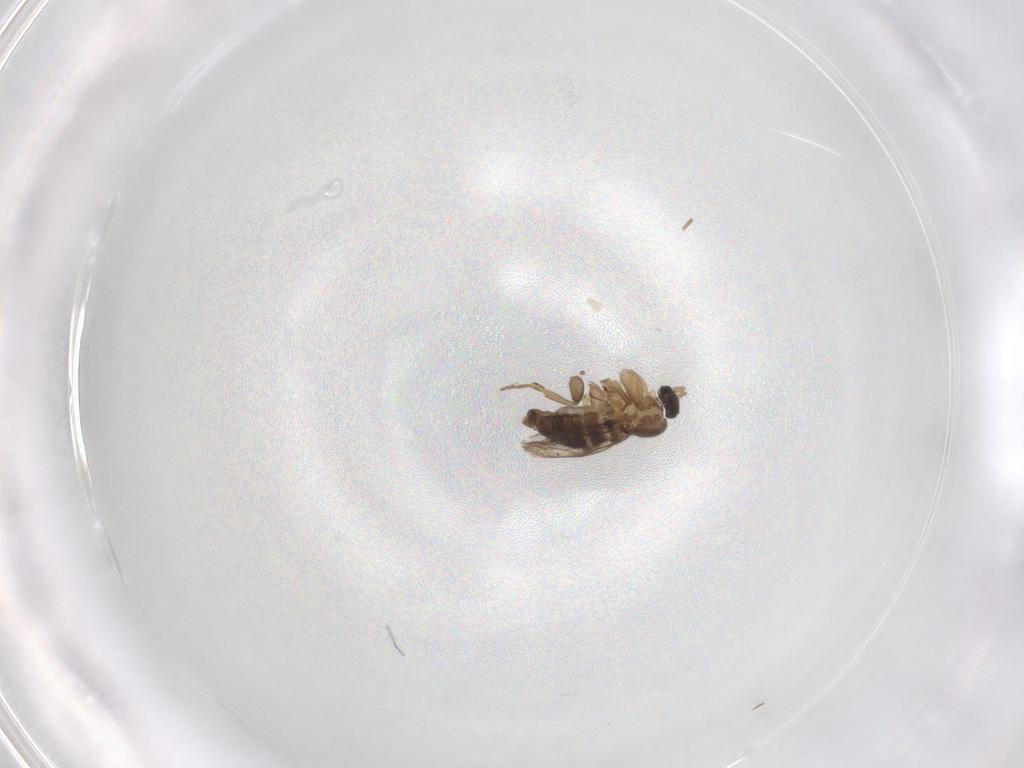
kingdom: Animalia
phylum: Arthropoda
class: Insecta
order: Diptera
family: Phoridae
